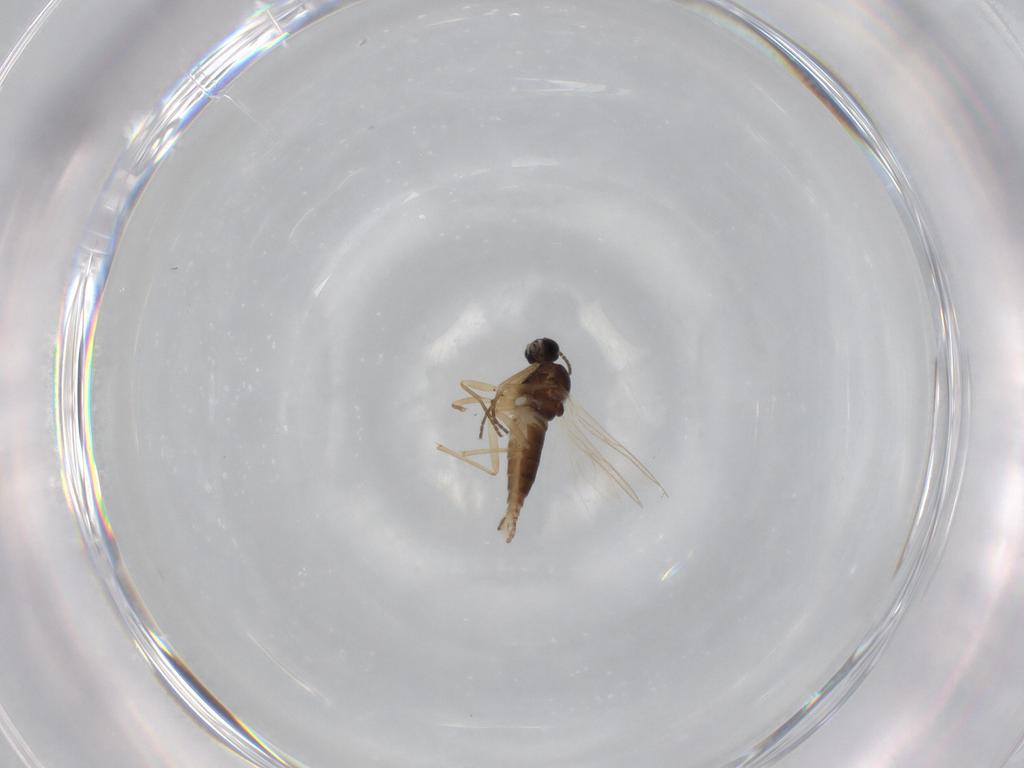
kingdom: Animalia
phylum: Arthropoda
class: Insecta
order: Diptera
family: Sciaridae
